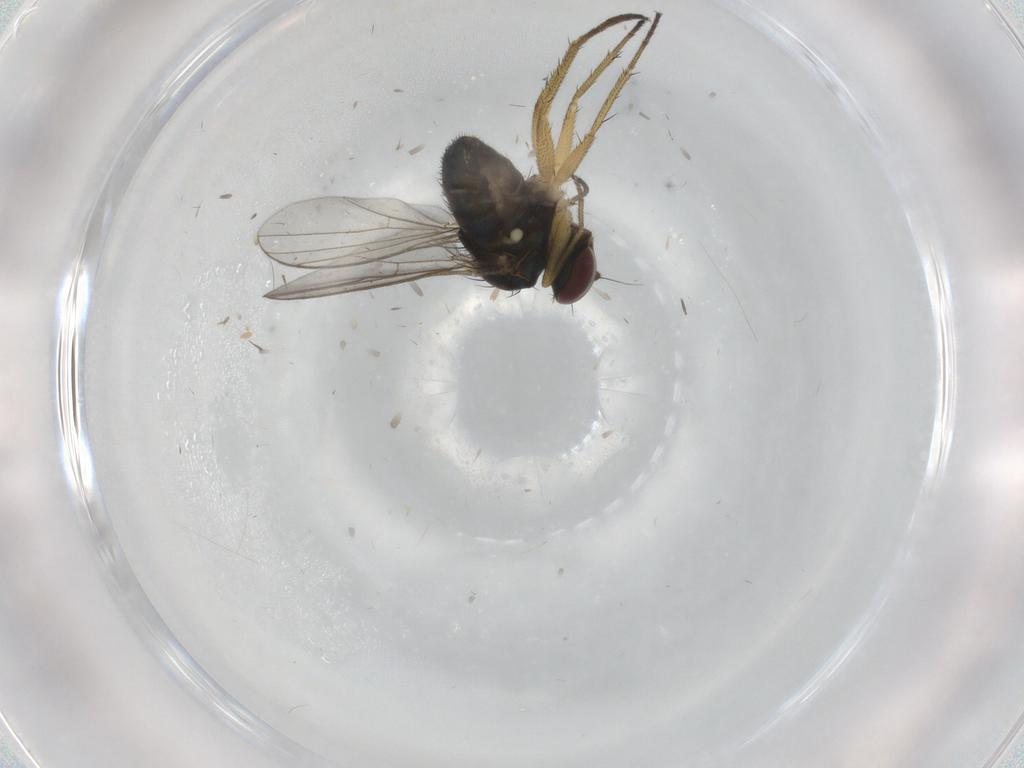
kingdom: Animalia
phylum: Arthropoda
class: Insecta
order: Diptera
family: Dolichopodidae
